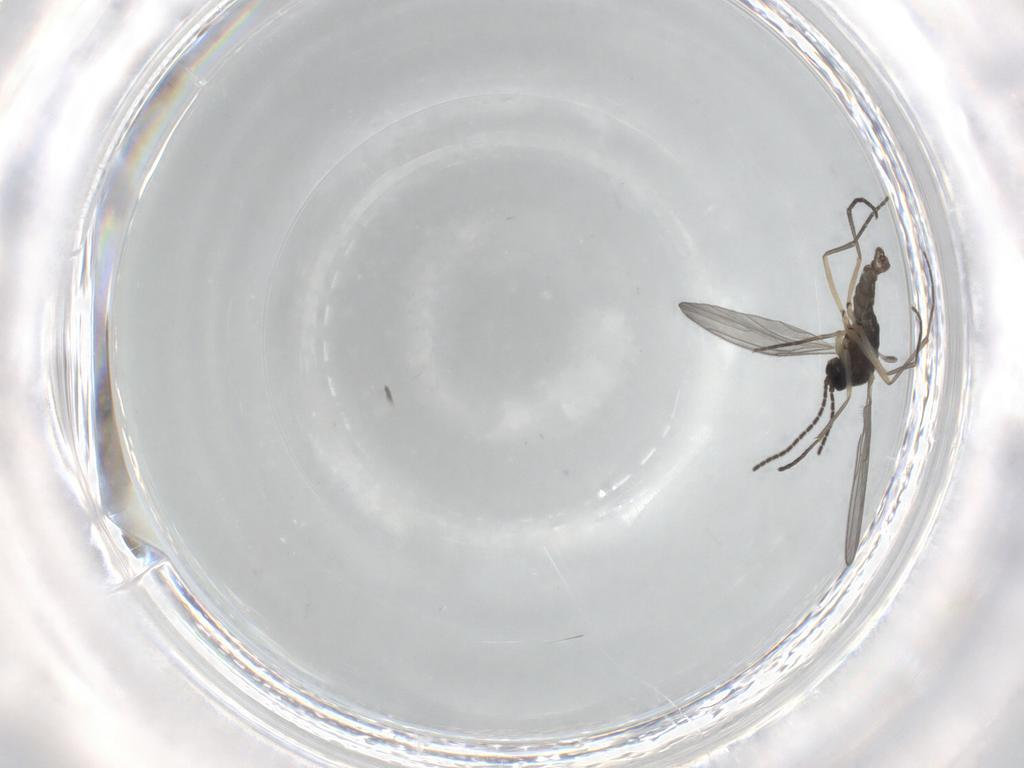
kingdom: Animalia
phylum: Arthropoda
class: Insecta
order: Diptera
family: Sciaridae
